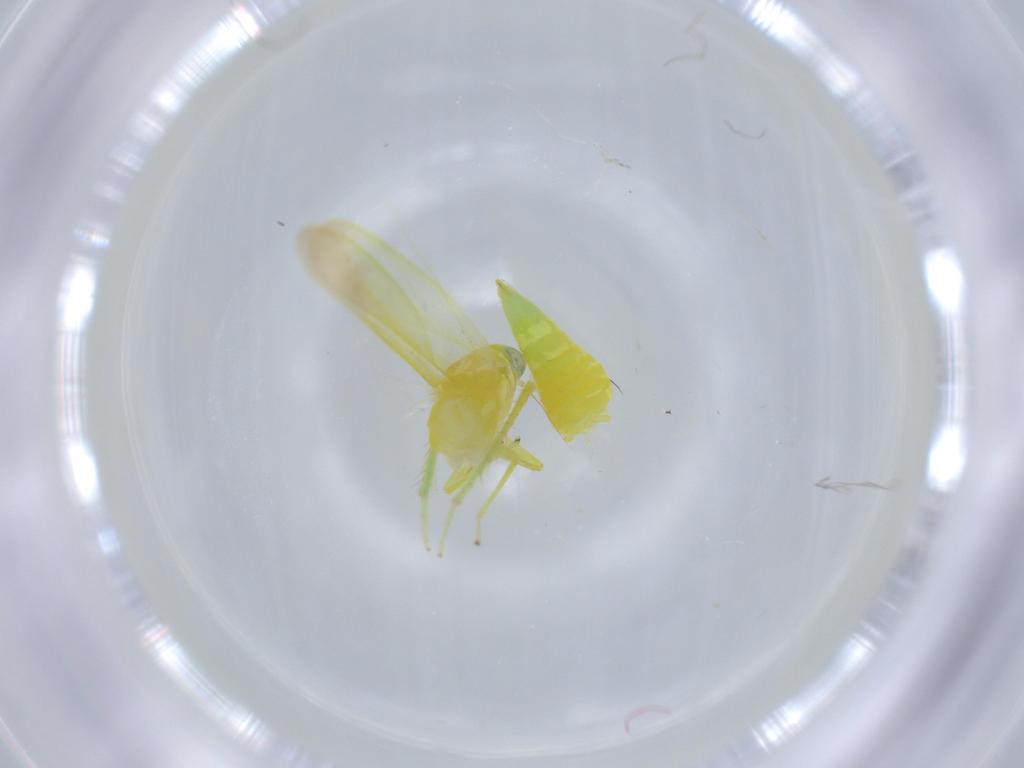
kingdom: Animalia
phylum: Arthropoda
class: Insecta
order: Hemiptera
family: Cicadellidae
